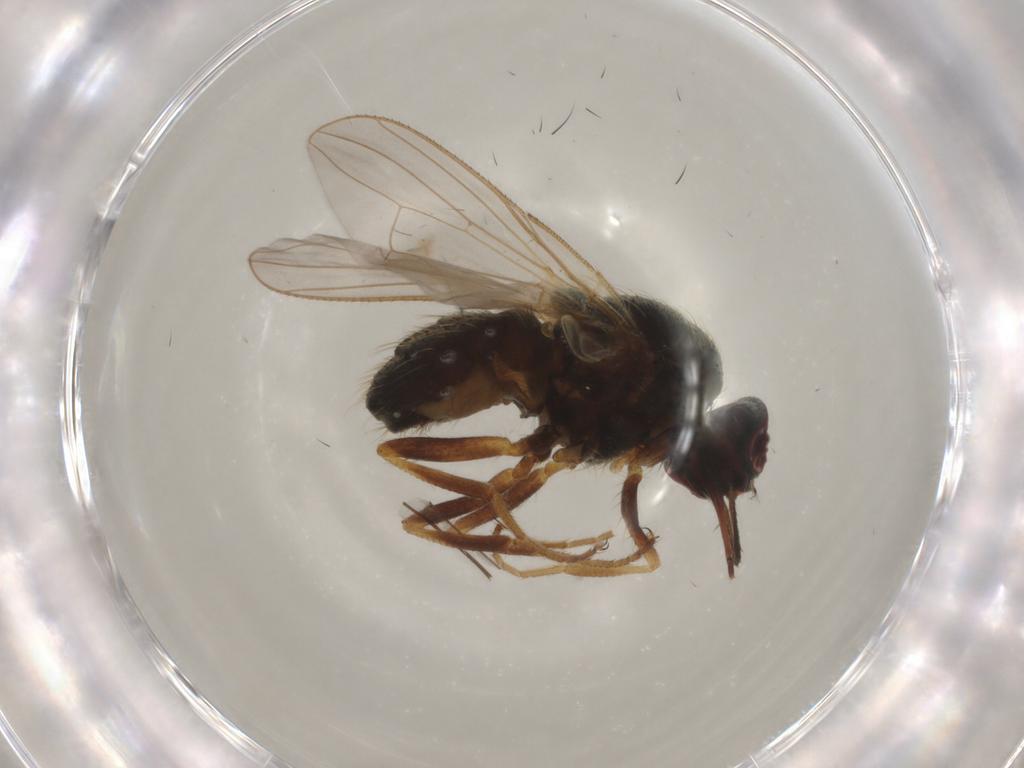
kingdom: Animalia
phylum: Arthropoda
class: Insecta
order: Diptera
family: Muscidae
